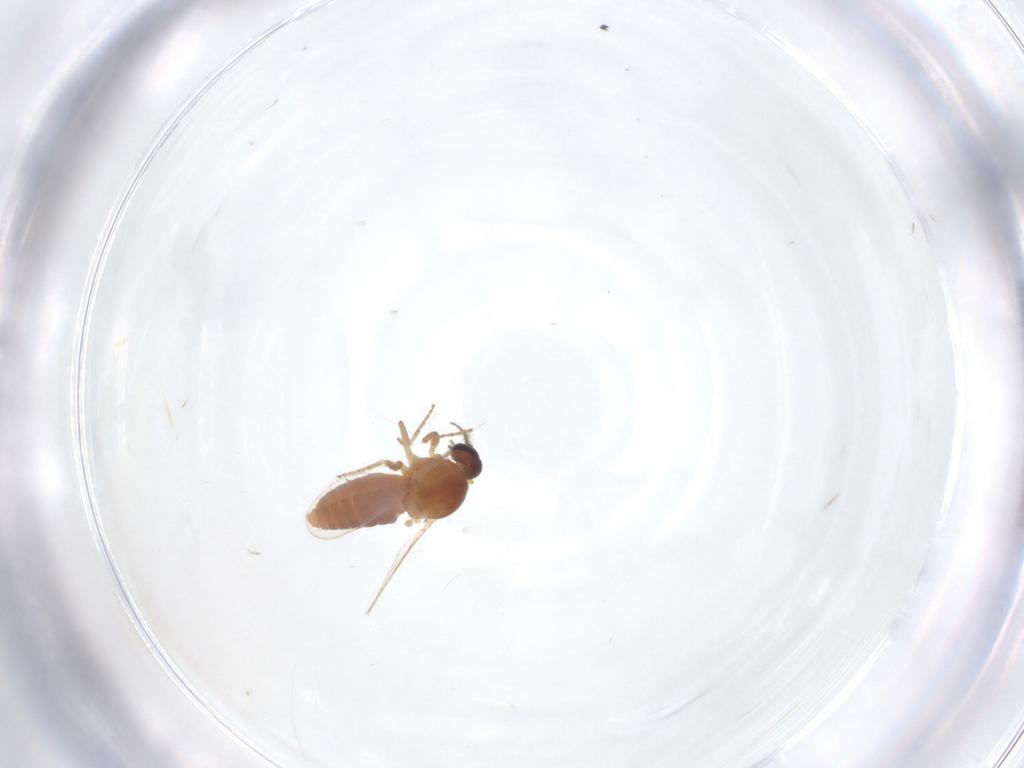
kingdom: Animalia
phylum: Arthropoda
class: Insecta
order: Diptera
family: Ceratopogonidae
